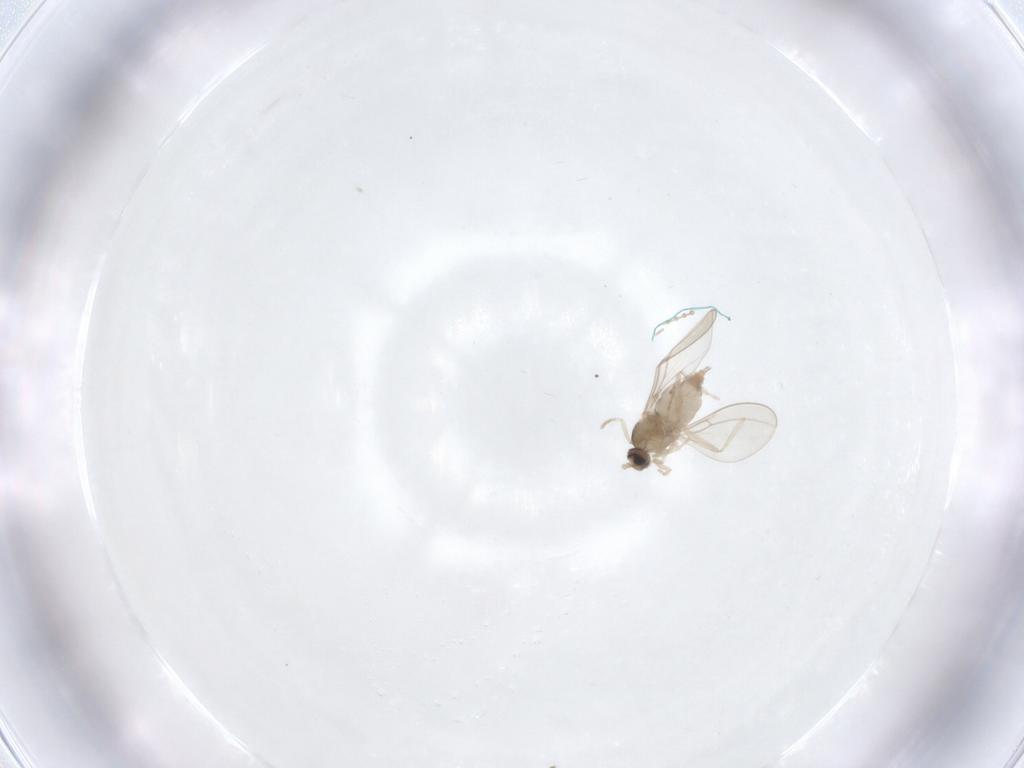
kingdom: Animalia
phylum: Arthropoda
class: Insecta
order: Diptera
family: Cecidomyiidae
